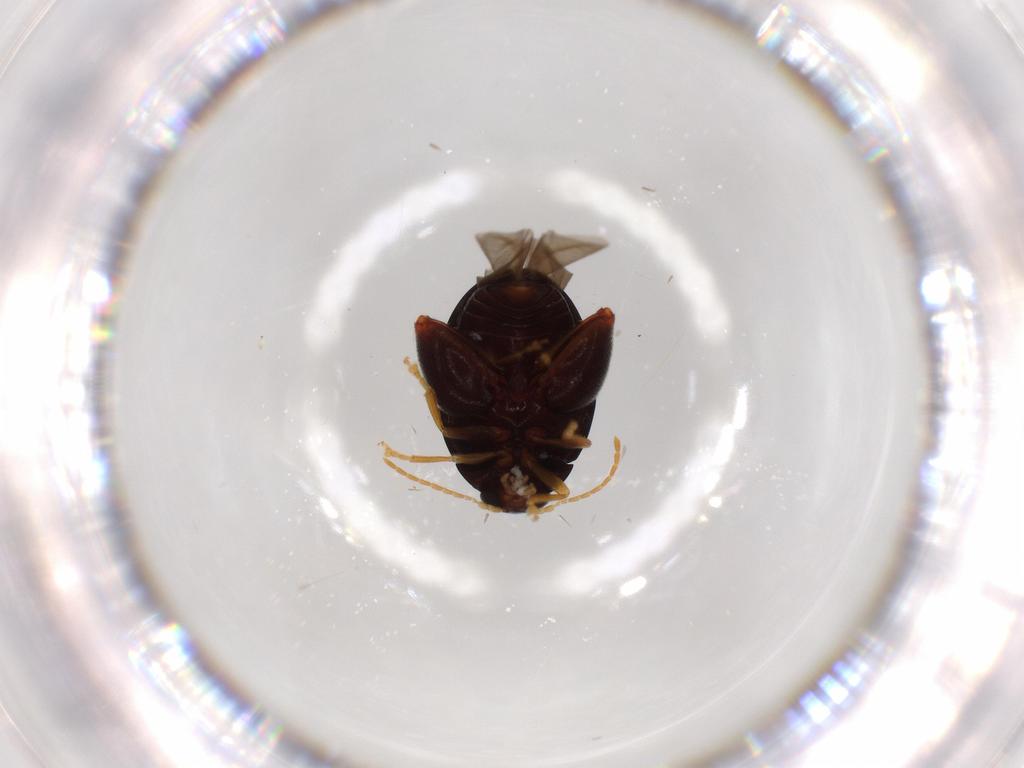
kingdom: Animalia
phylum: Arthropoda
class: Insecta
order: Coleoptera
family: Chrysomelidae
